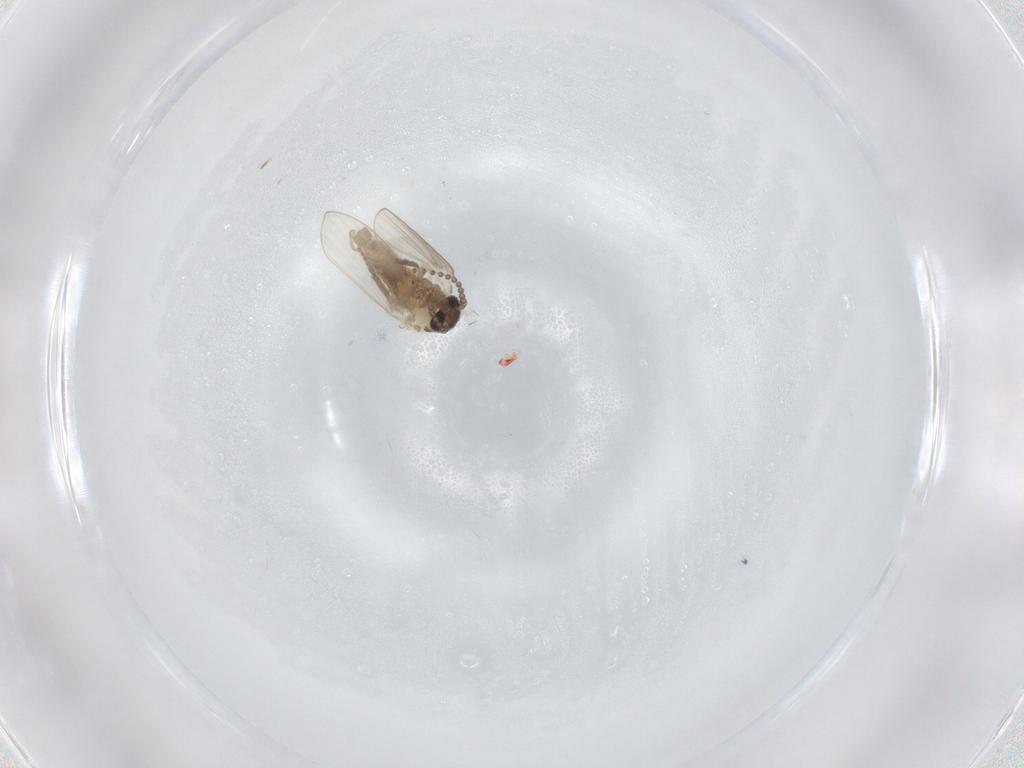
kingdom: Animalia
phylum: Arthropoda
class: Insecta
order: Diptera
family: Psychodidae
